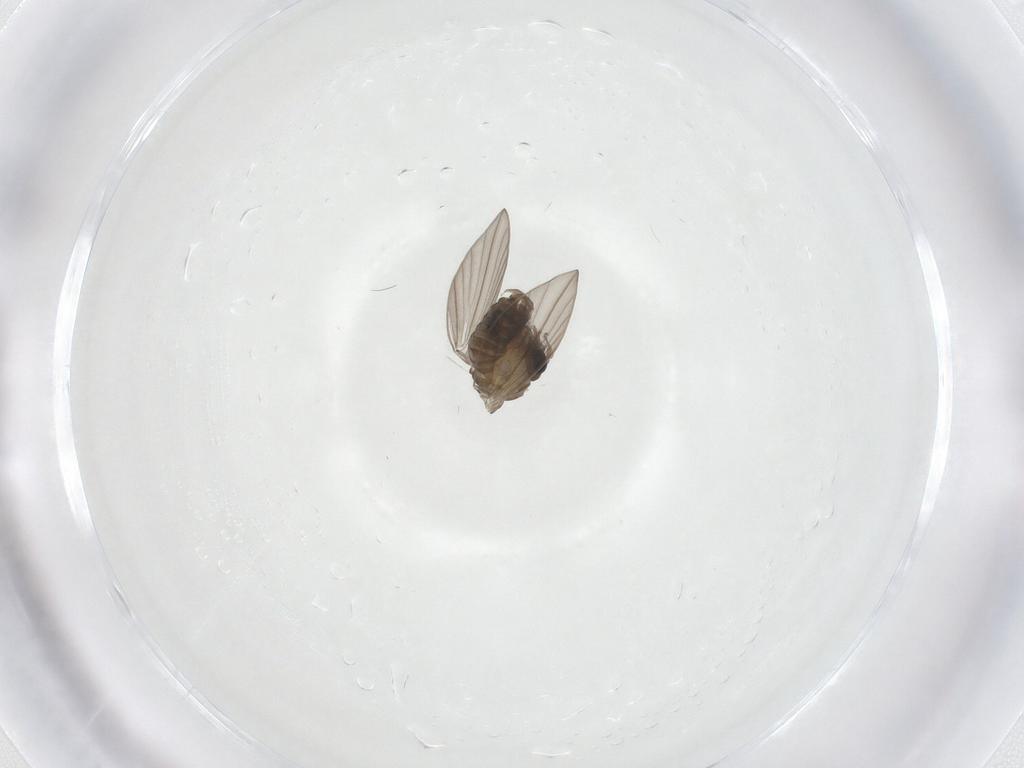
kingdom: Animalia
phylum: Arthropoda
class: Insecta
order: Diptera
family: Psychodidae
